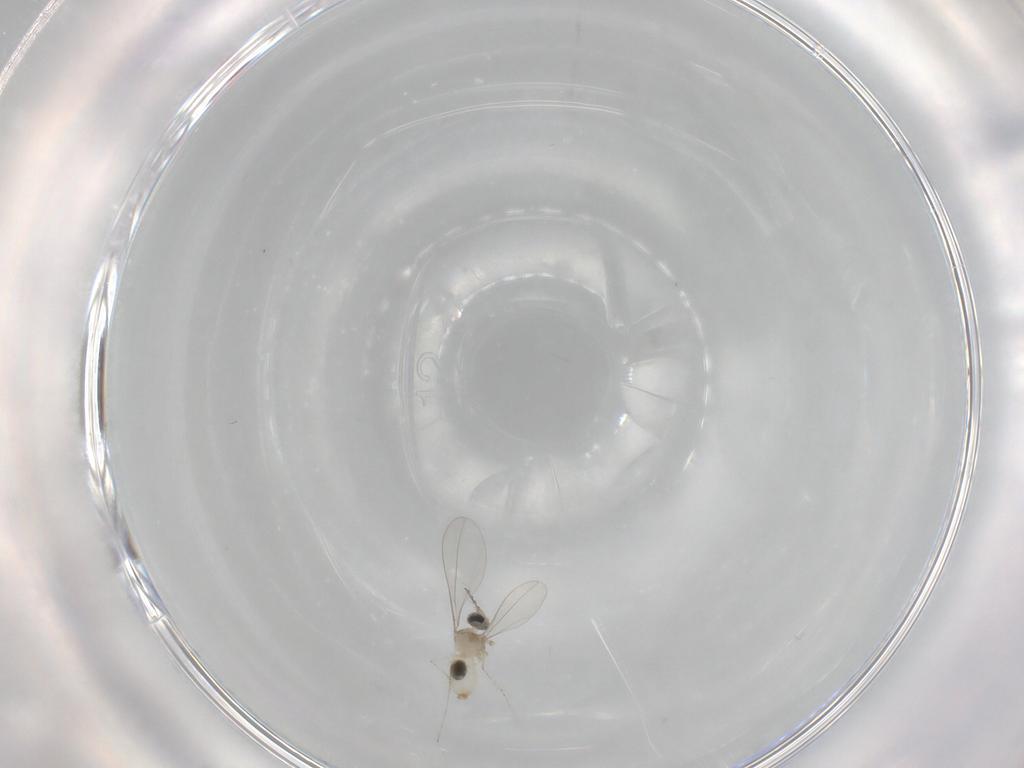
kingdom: Animalia
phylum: Arthropoda
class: Insecta
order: Diptera
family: Cecidomyiidae
